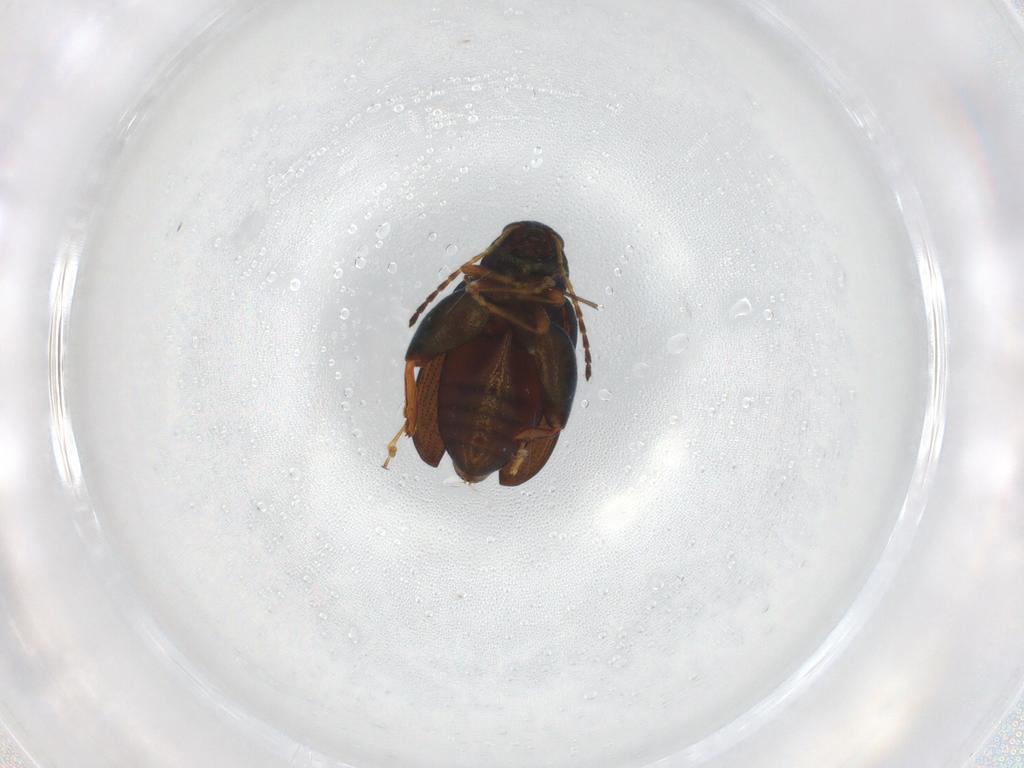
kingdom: Animalia
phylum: Arthropoda
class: Insecta
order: Coleoptera
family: Chrysomelidae
